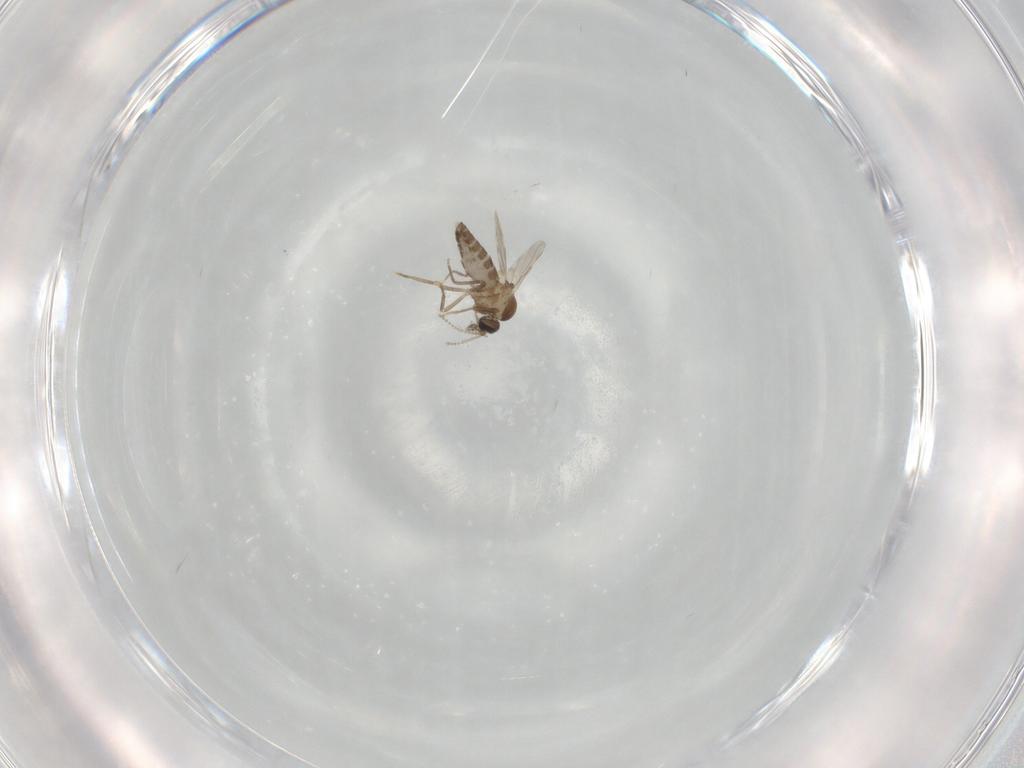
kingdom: Animalia
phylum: Arthropoda
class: Insecta
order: Diptera
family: Ceratopogonidae
